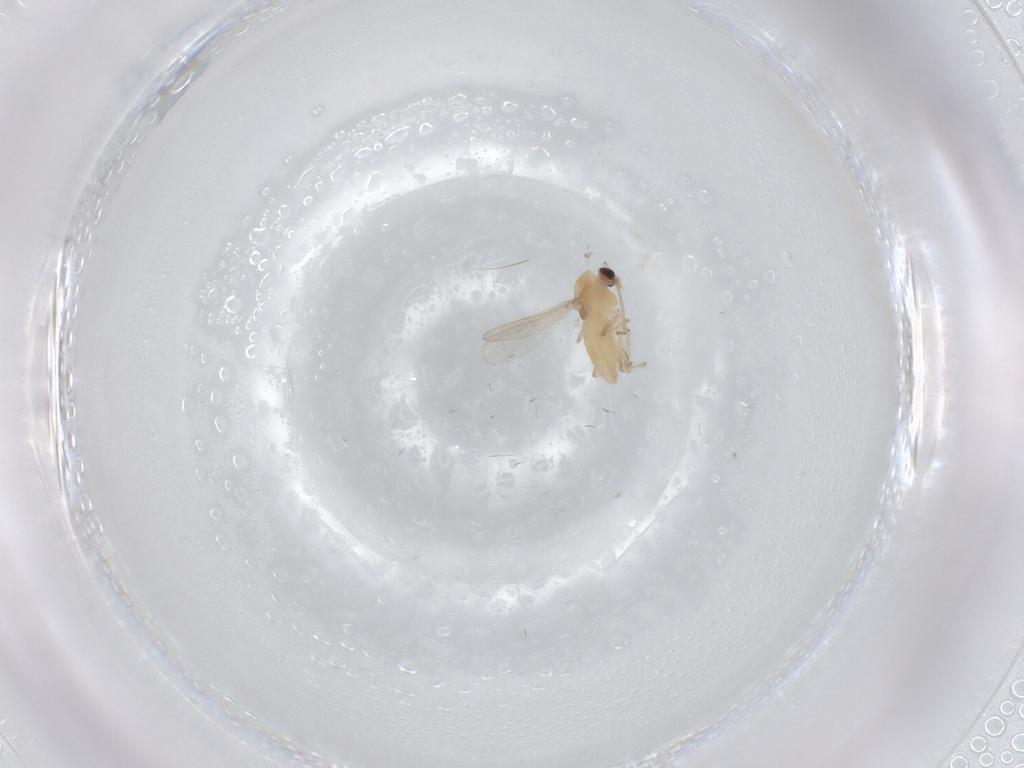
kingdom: Animalia
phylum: Arthropoda
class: Insecta
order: Diptera
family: Chironomidae
